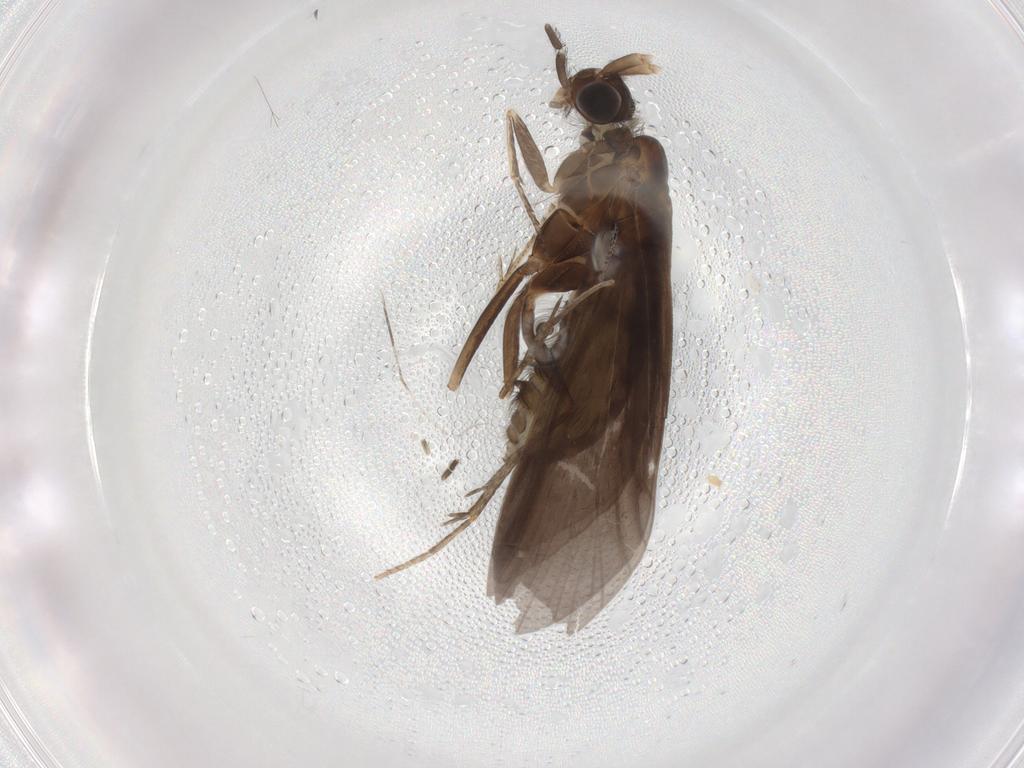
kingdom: Animalia
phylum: Arthropoda
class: Insecta
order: Trichoptera
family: Helicopsychidae
